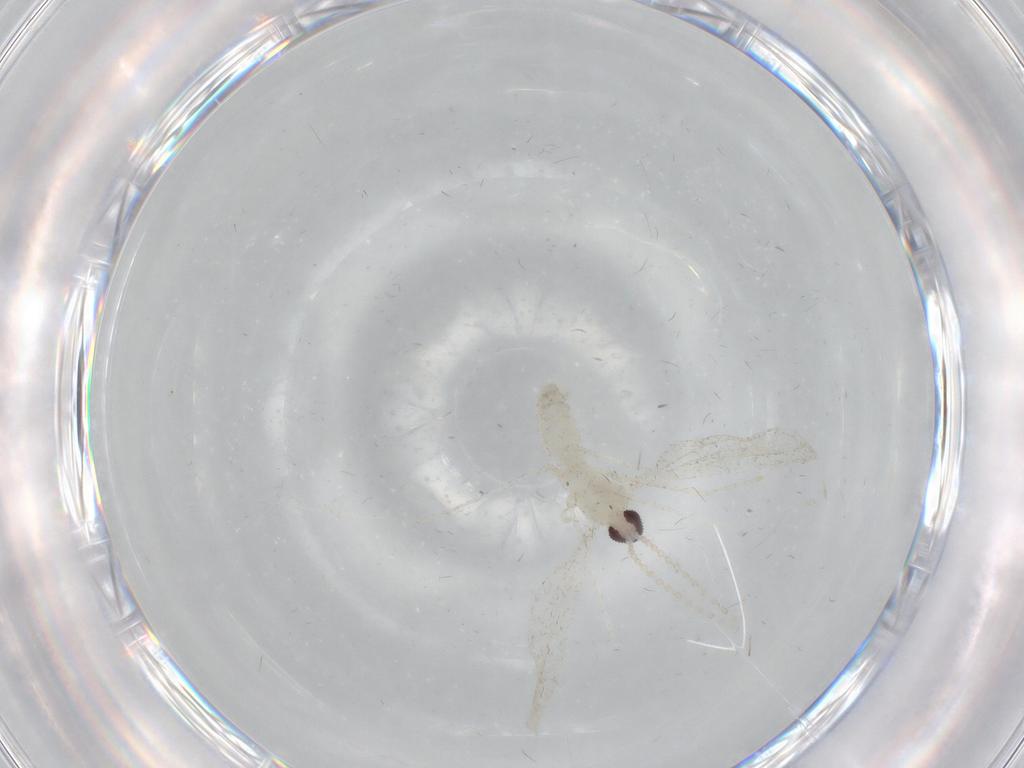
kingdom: Animalia
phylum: Arthropoda
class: Insecta
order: Diptera
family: Cecidomyiidae
